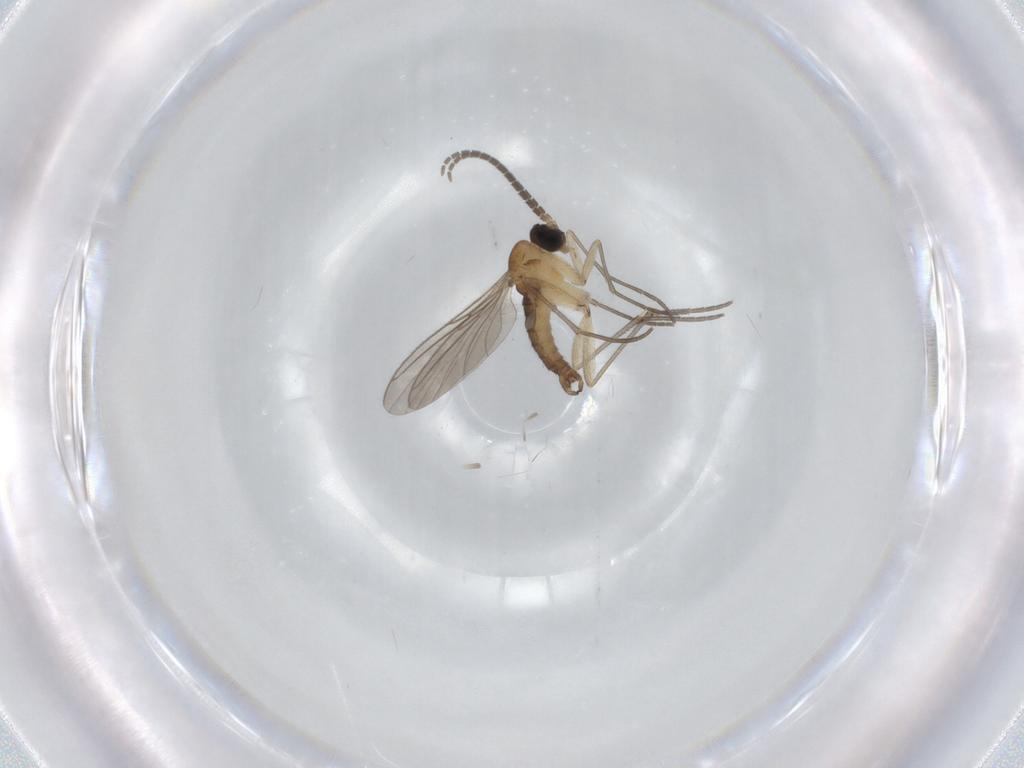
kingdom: Animalia
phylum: Arthropoda
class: Insecta
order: Diptera
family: Sciaridae
